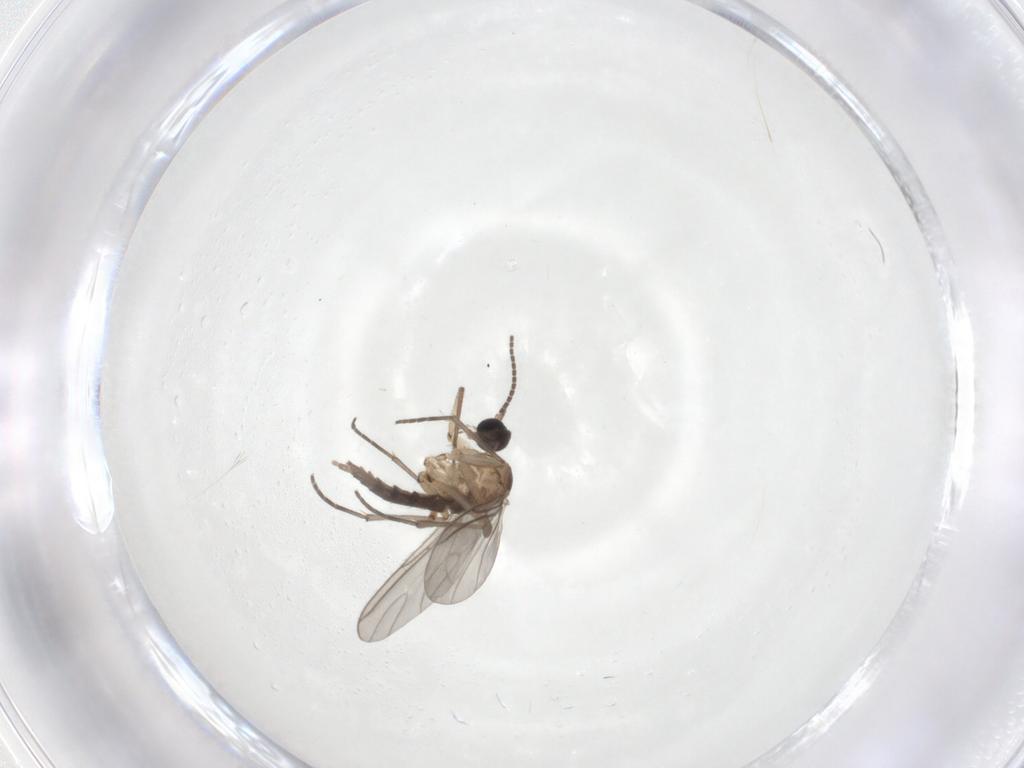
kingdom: Animalia
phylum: Arthropoda
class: Insecta
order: Diptera
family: Sciaridae
